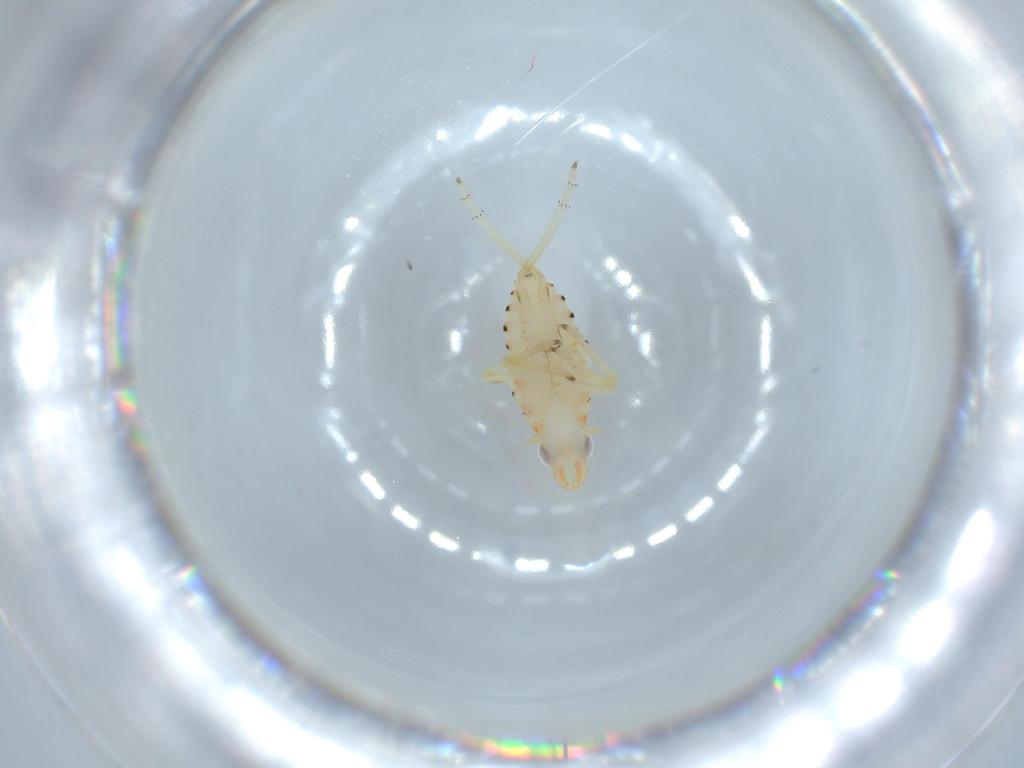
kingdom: Animalia
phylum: Arthropoda
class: Insecta
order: Hemiptera
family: Tropiduchidae
